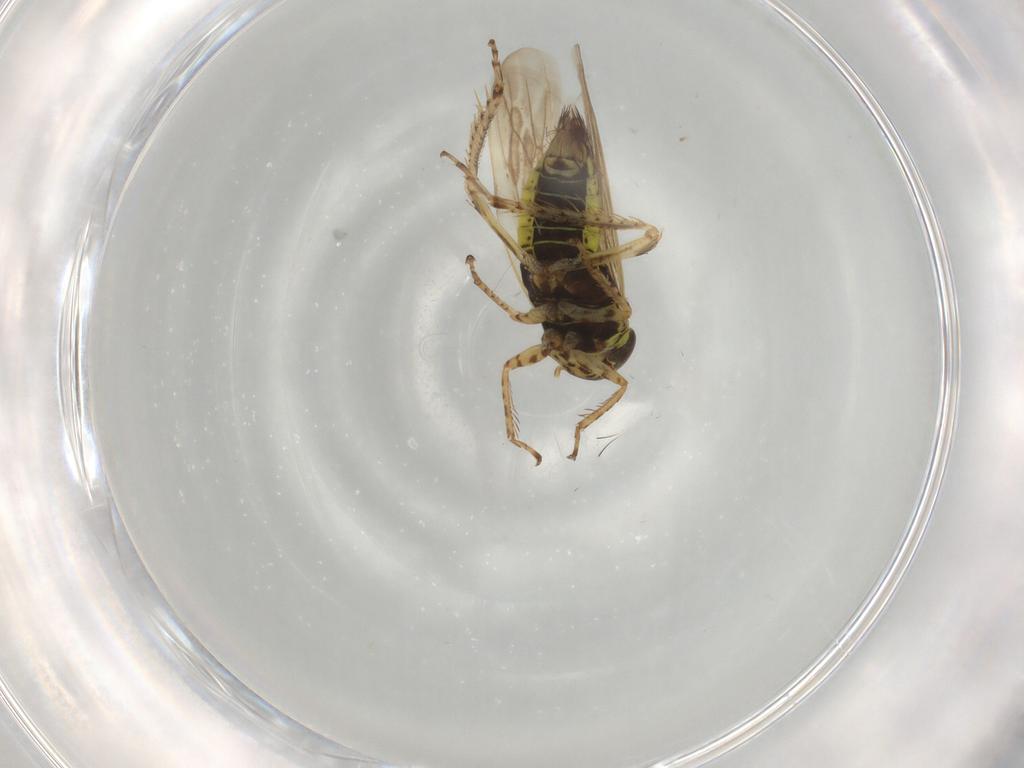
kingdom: Animalia
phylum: Arthropoda
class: Insecta
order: Hemiptera
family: Cicadellidae
